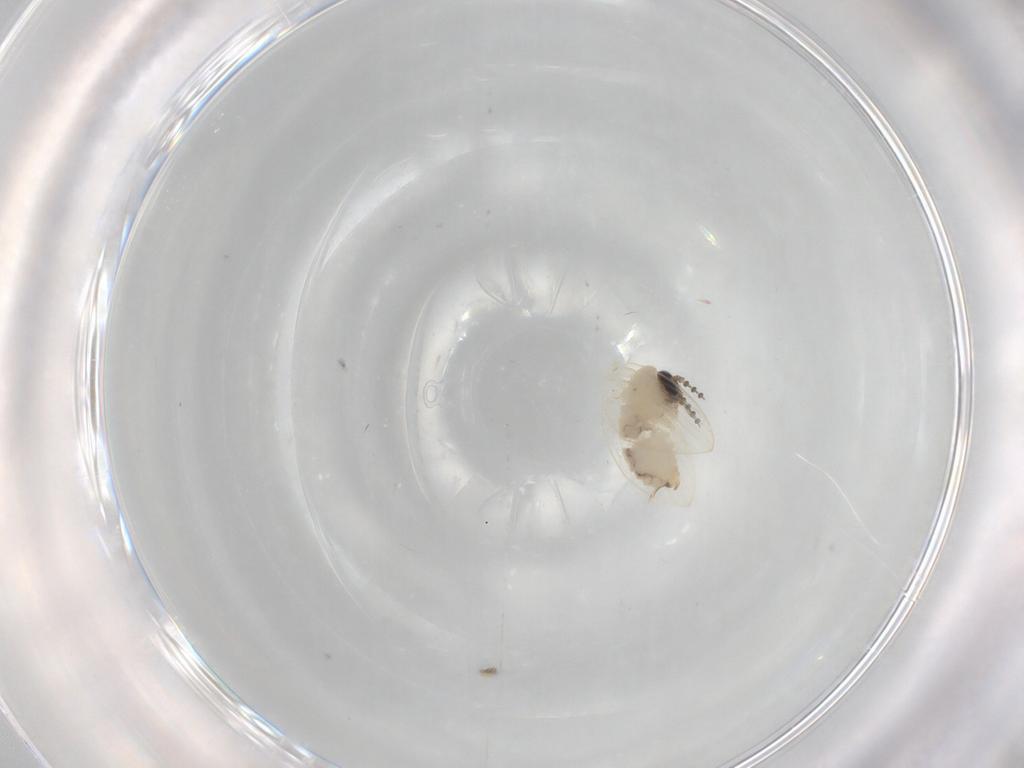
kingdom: Animalia
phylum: Arthropoda
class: Insecta
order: Diptera
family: Psychodidae
